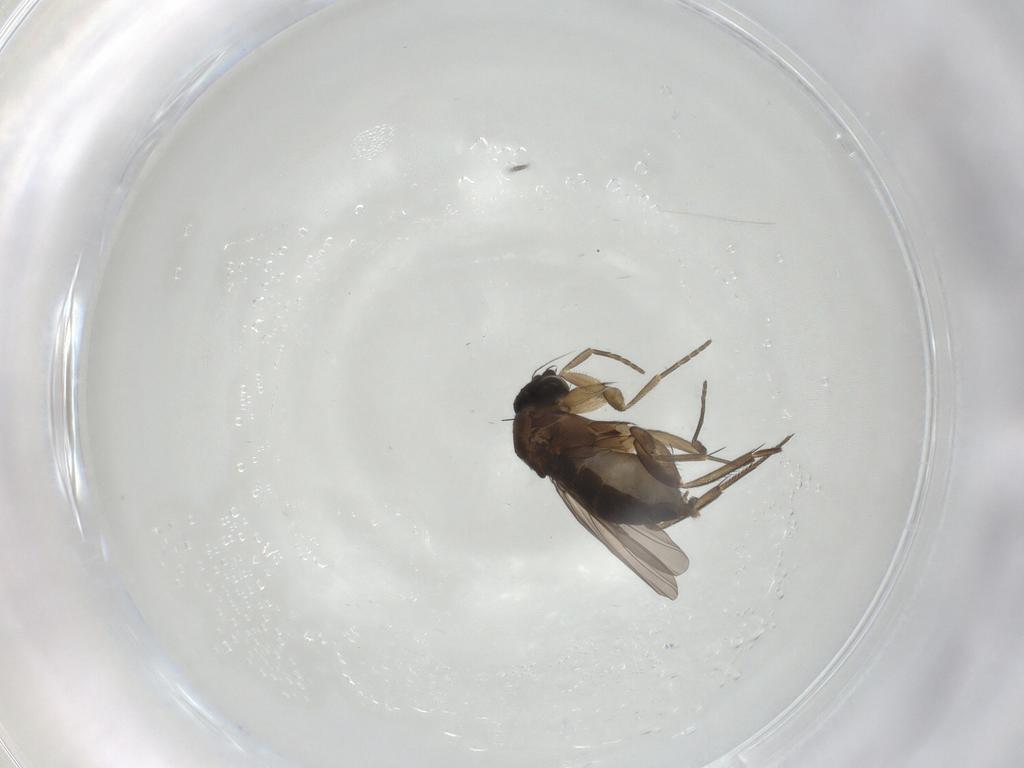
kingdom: Animalia
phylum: Arthropoda
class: Insecta
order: Diptera
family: Phoridae
